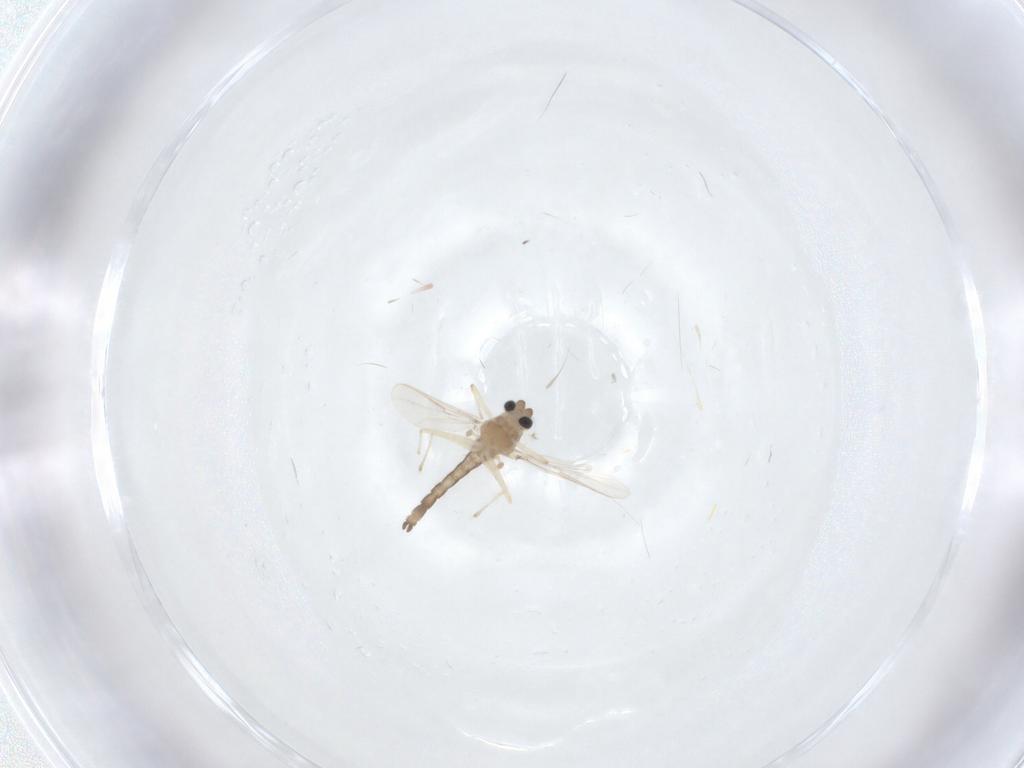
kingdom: Animalia
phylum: Arthropoda
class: Insecta
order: Diptera
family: Chironomidae
